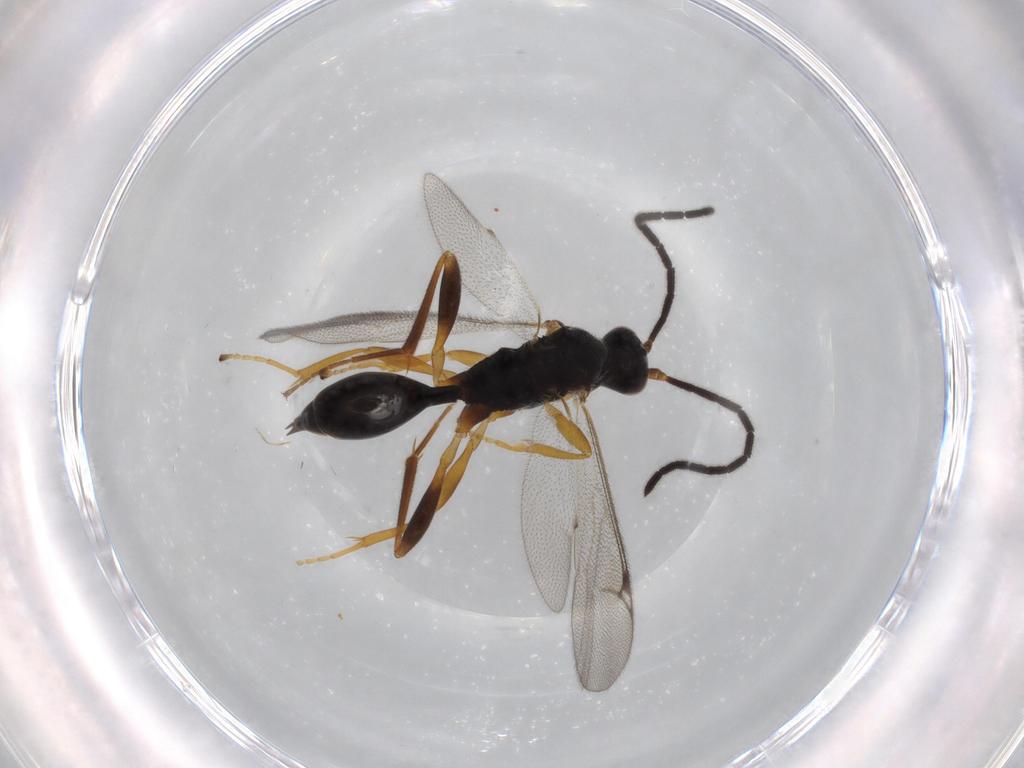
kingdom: Animalia
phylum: Arthropoda
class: Insecta
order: Hymenoptera
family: Proctotrupidae
